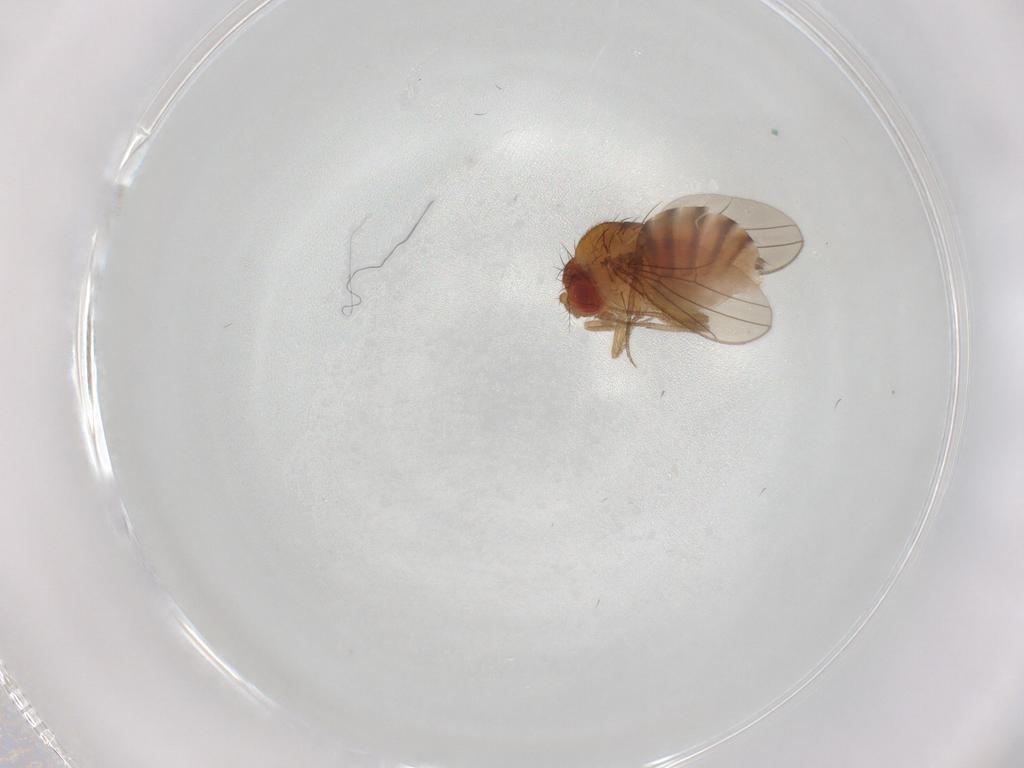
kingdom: Animalia
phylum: Arthropoda
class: Insecta
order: Diptera
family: Drosophilidae
